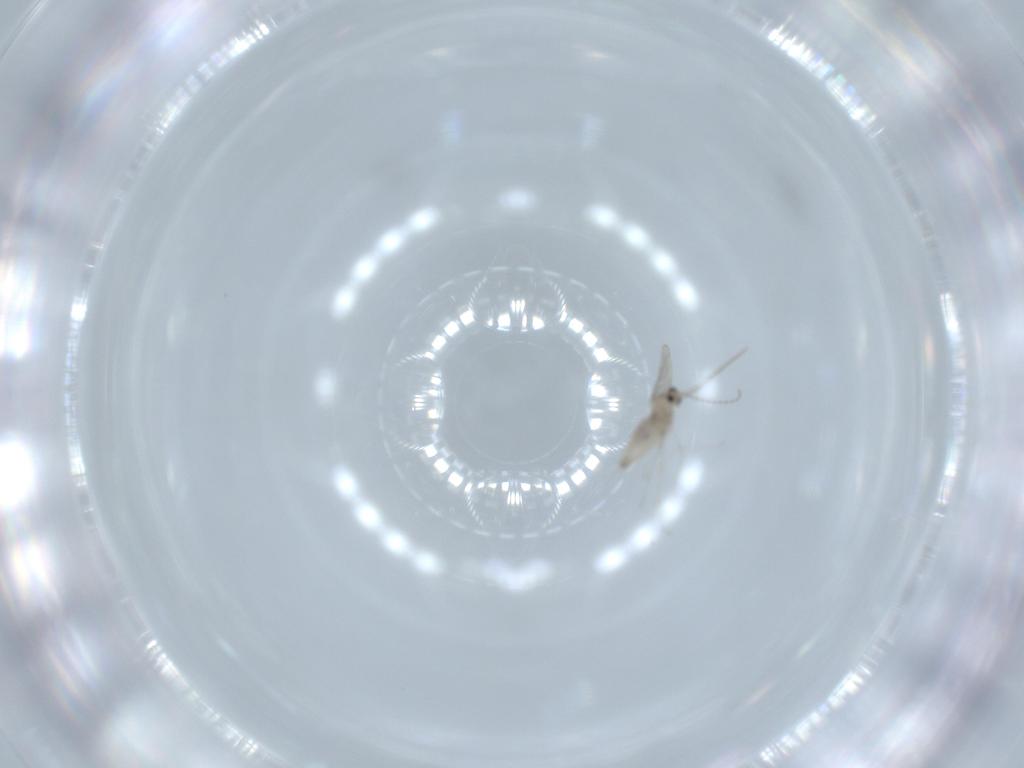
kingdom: Animalia
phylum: Arthropoda
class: Insecta
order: Diptera
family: Cecidomyiidae
